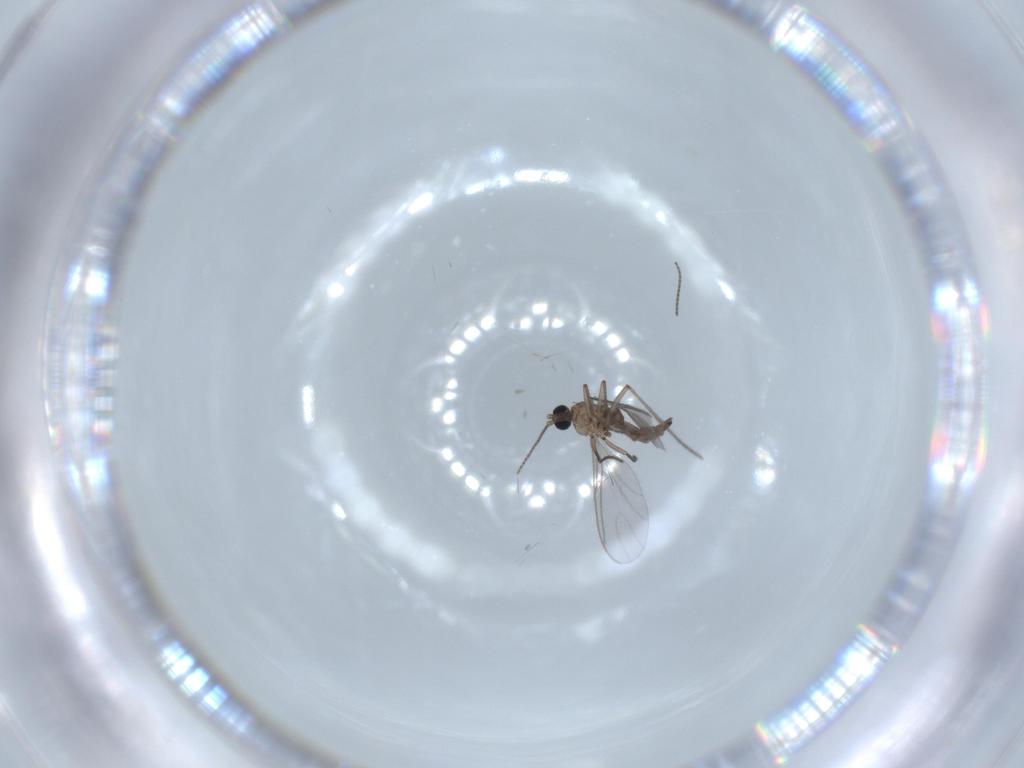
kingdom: Animalia
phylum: Arthropoda
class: Insecta
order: Diptera
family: Sciaridae
